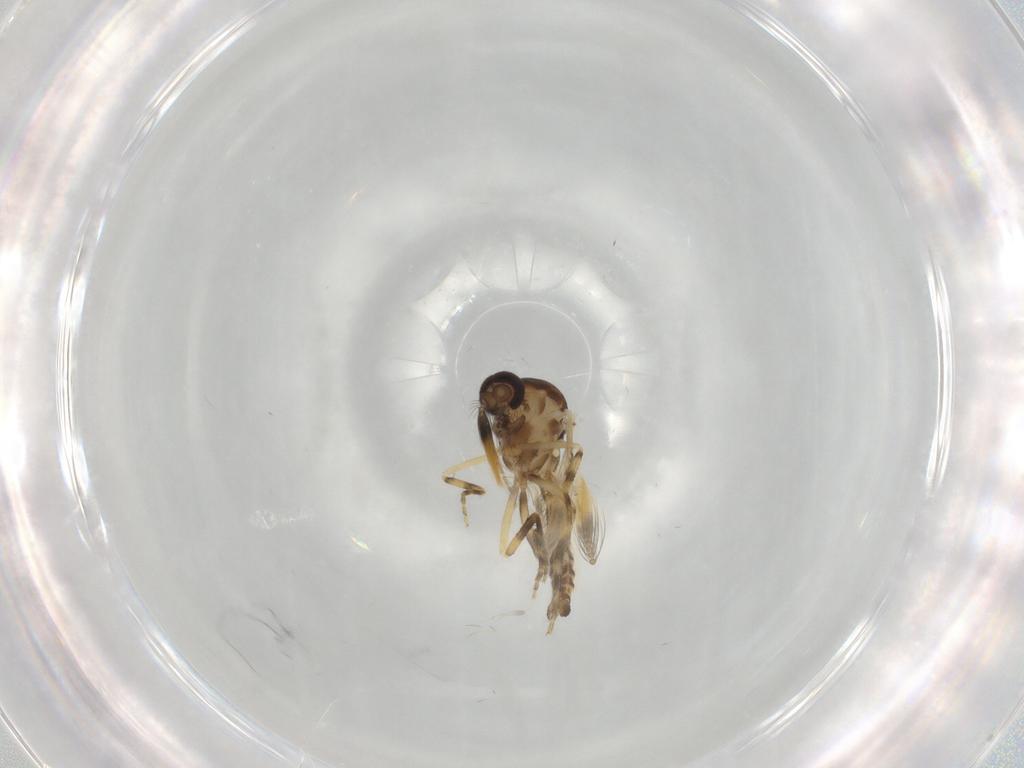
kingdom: Animalia
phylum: Arthropoda
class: Insecta
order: Diptera
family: Ceratopogonidae
